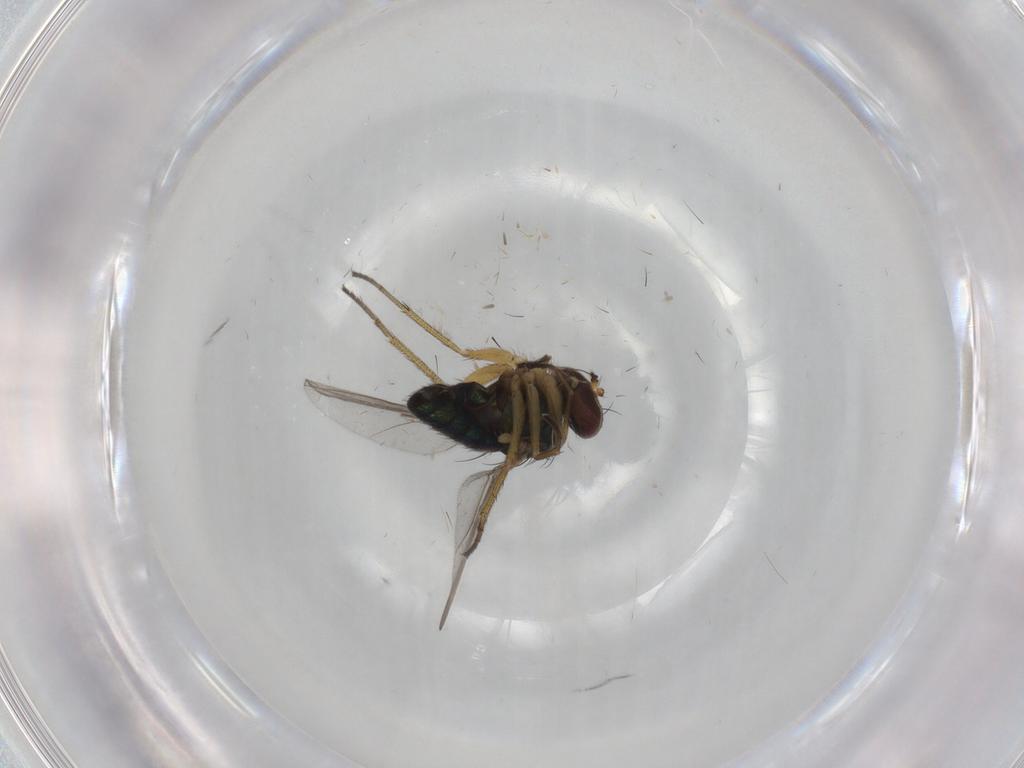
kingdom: Animalia
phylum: Arthropoda
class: Insecta
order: Diptera
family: Dolichopodidae
